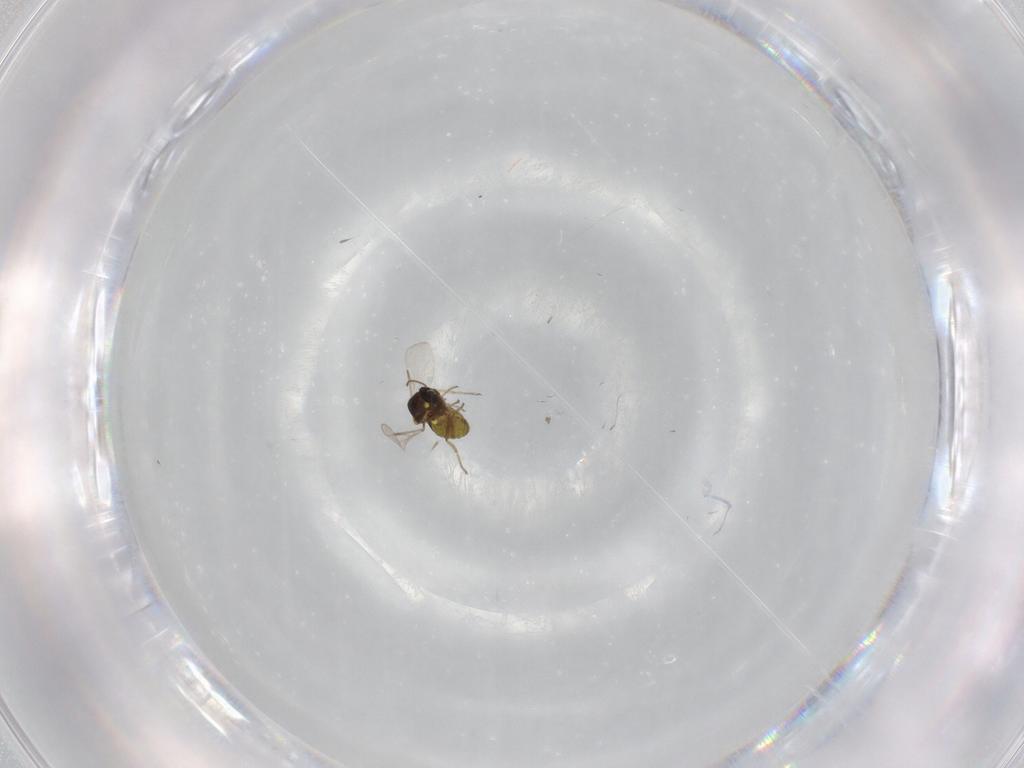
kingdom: Animalia
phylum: Arthropoda
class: Insecta
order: Diptera
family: Ceratopogonidae
